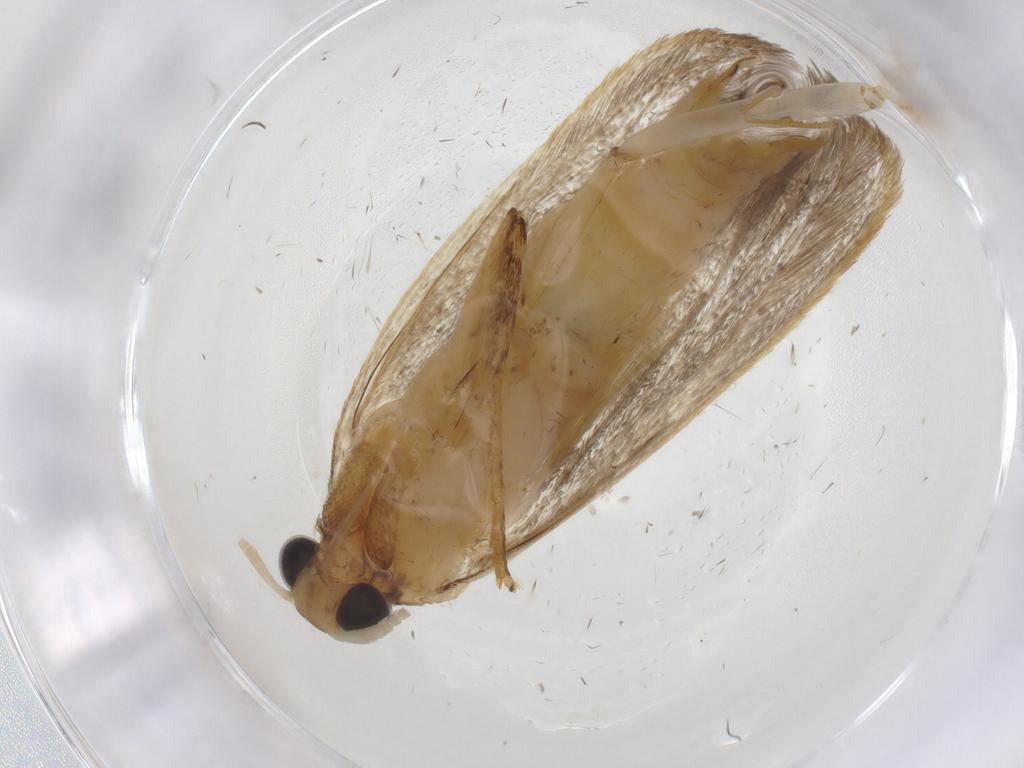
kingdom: Animalia
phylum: Arthropoda
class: Insecta
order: Lepidoptera
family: Lecithoceridae
